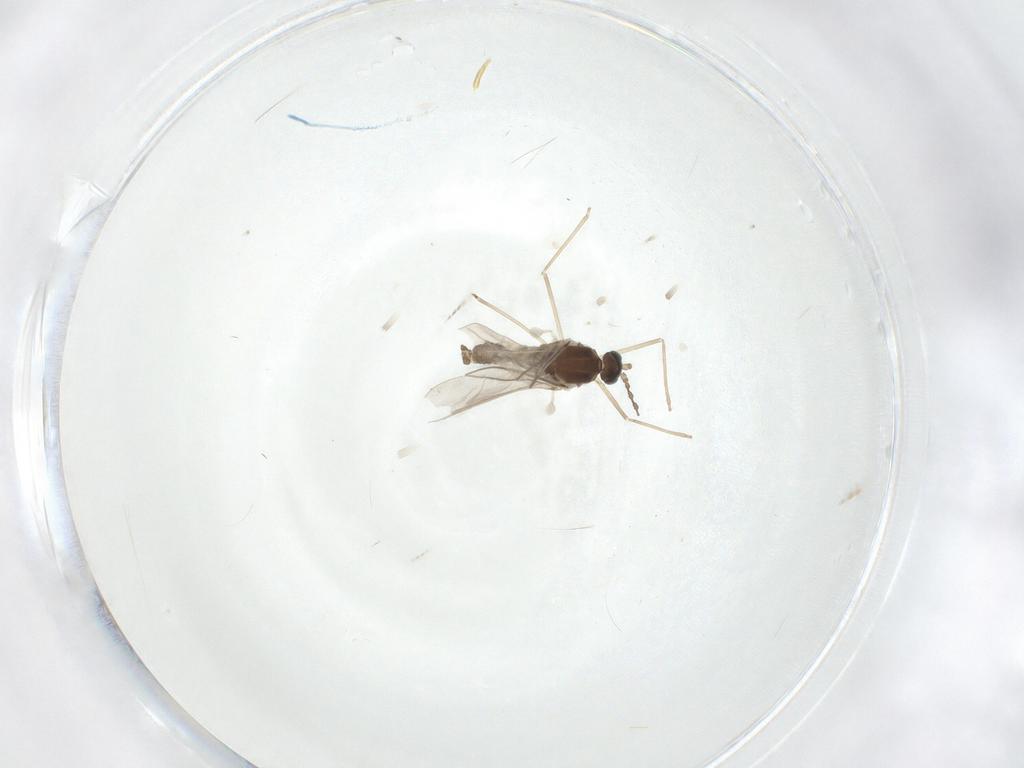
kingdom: Animalia
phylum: Arthropoda
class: Insecta
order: Diptera
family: Cecidomyiidae
